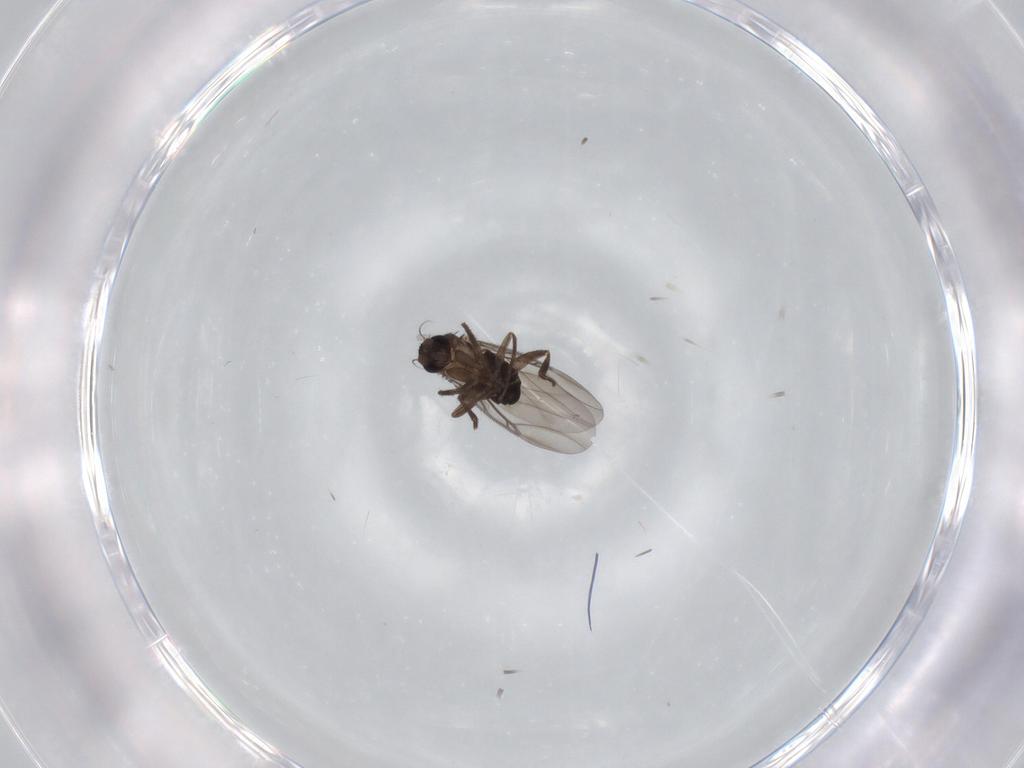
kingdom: Animalia
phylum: Arthropoda
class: Insecta
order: Diptera
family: Phoridae
